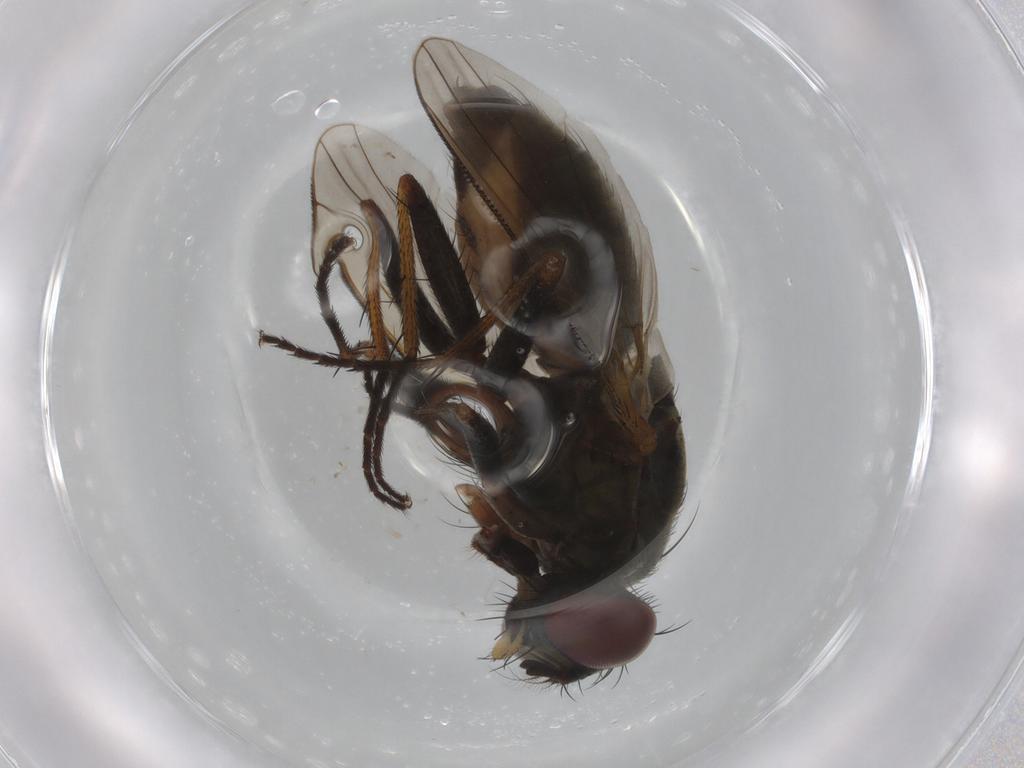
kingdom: Animalia
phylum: Arthropoda
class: Insecta
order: Diptera
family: Muscidae
